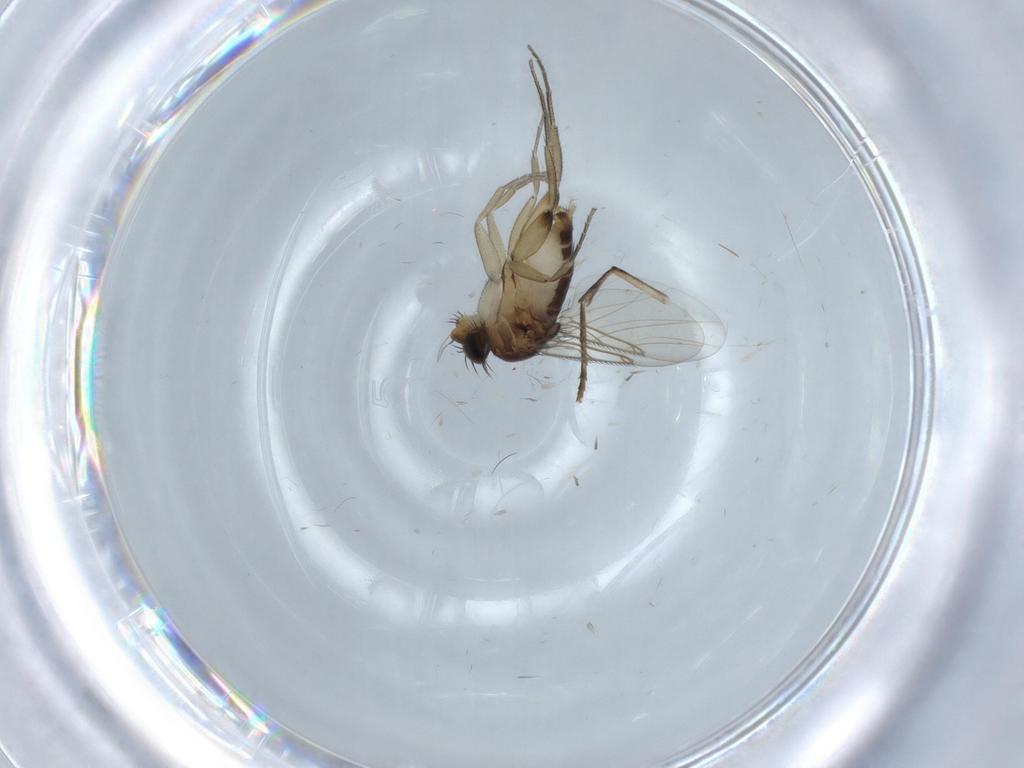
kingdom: Animalia
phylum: Arthropoda
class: Insecta
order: Diptera
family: Phoridae
